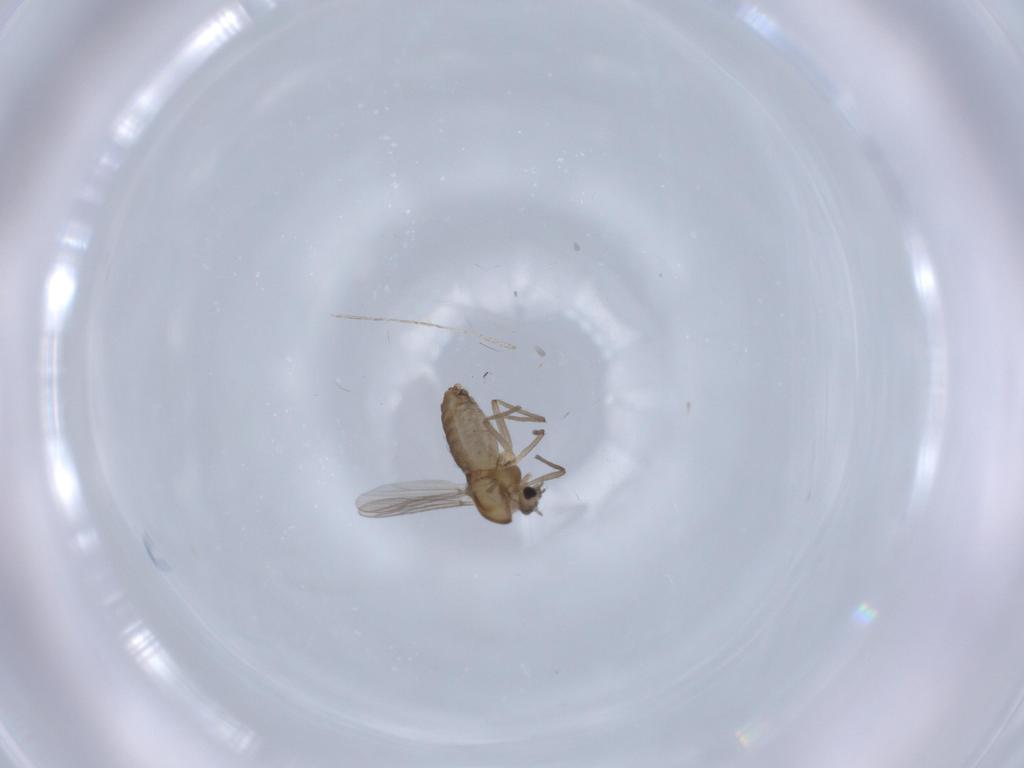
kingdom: Animalia
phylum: Arthropoda
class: Insecta
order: Diptera
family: Chironomidae
